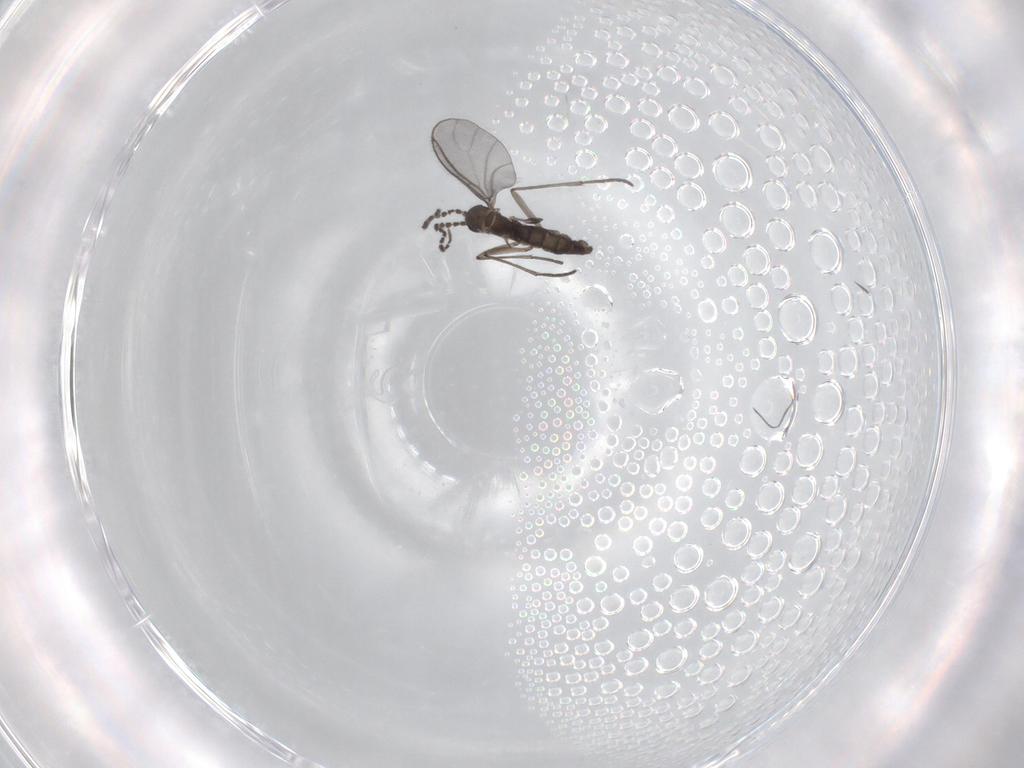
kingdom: Animalia
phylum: Arthropoda
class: Insecta
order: Diptera
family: Sciaridae
